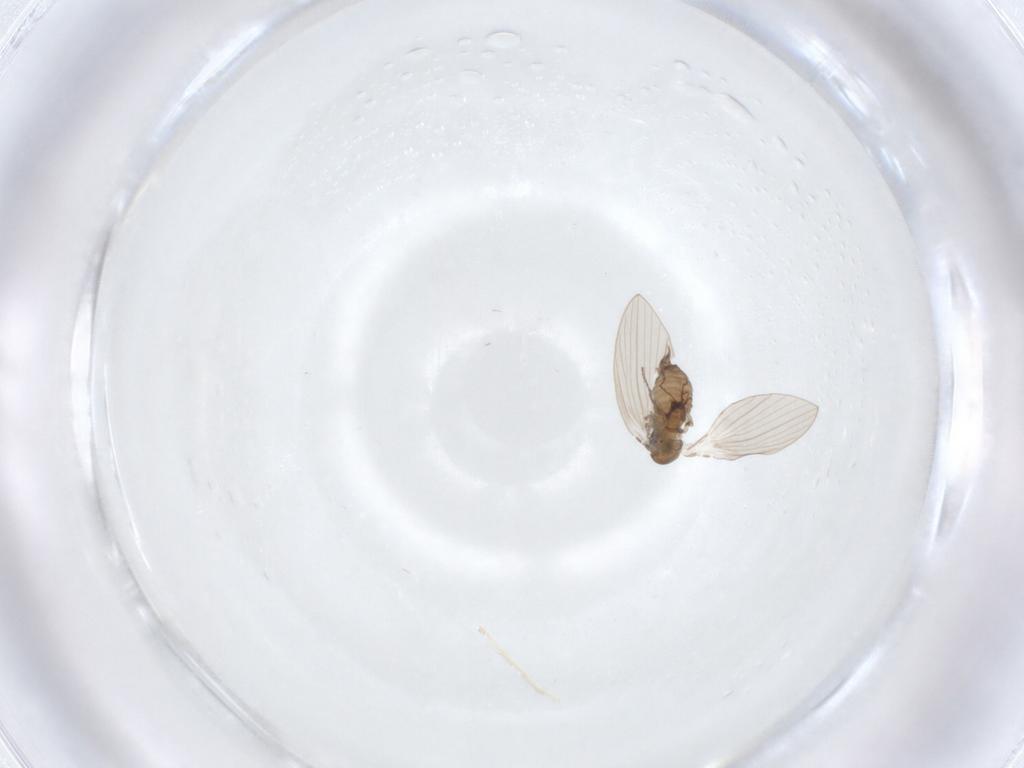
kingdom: Animalia
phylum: Arthropoda
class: Insecta
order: Diptera
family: Psychodidae
